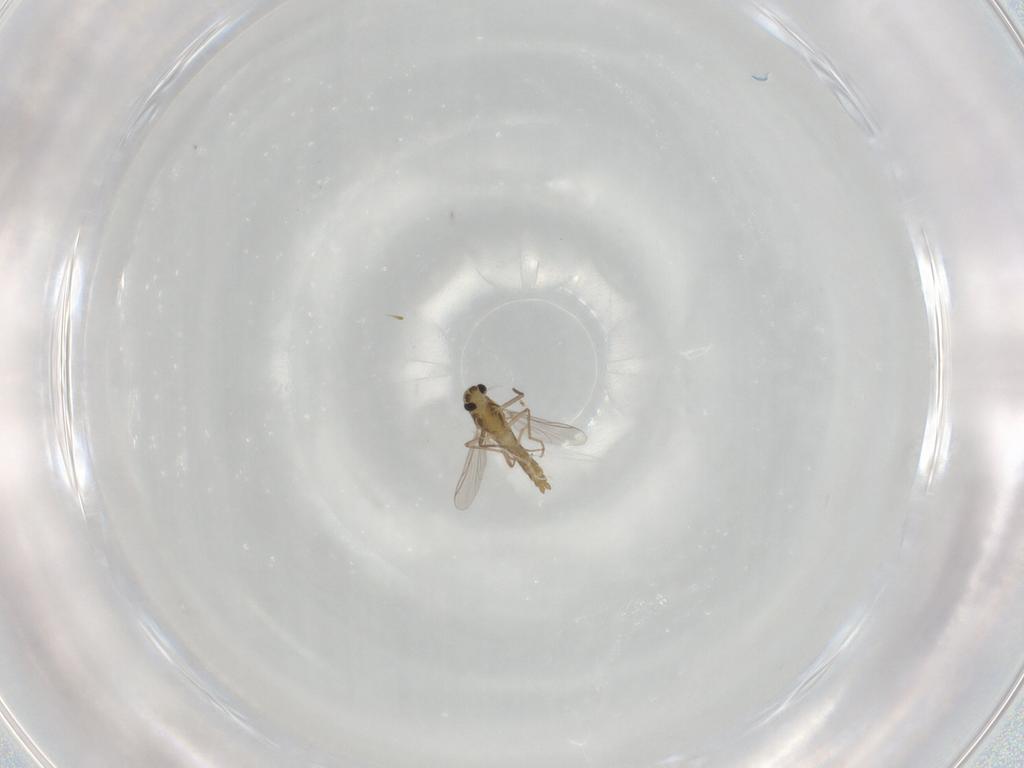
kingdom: Animalia
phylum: Arthropoda
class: Insecta
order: Diptera
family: Chironomidae
